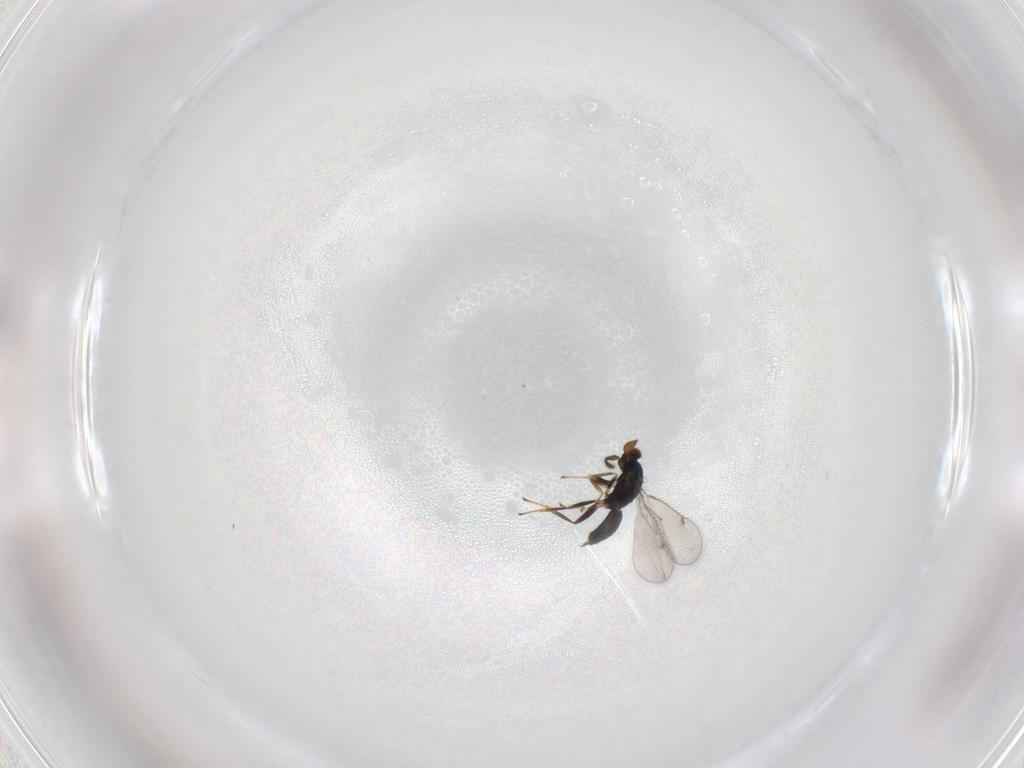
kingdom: Animalia
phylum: Arthropoda
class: Insecta
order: Hymenoptera
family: Eulophidae
